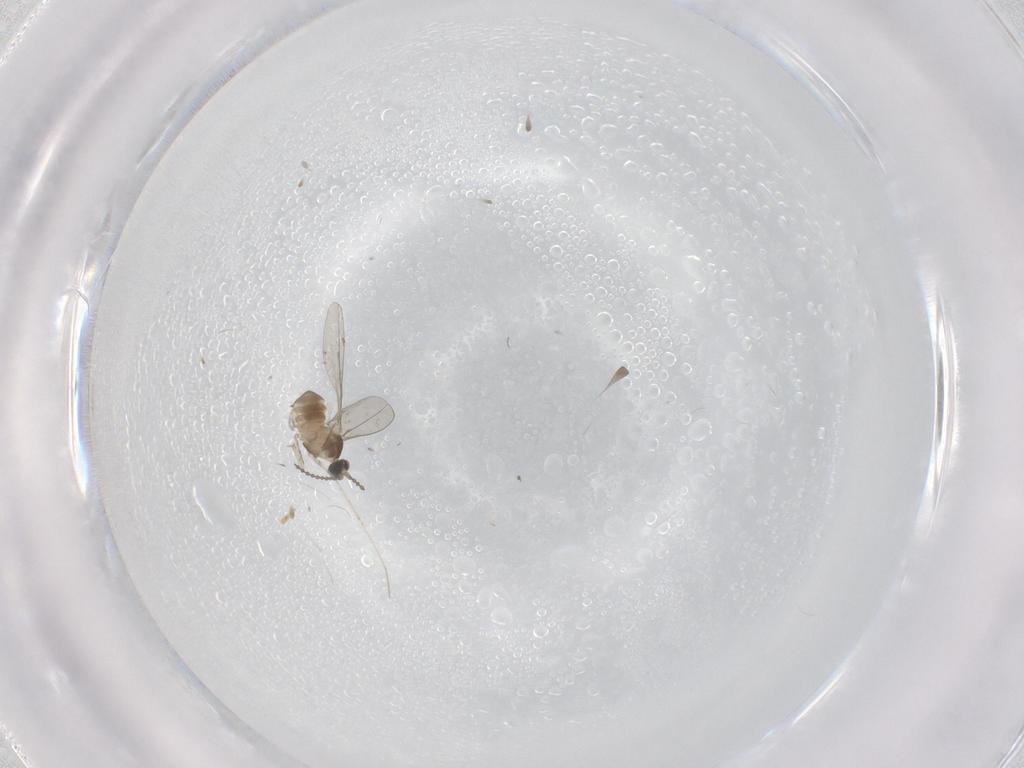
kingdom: Animalia
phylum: Arthropoda
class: Insecta
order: Diptera
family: Cecidomyiidae
